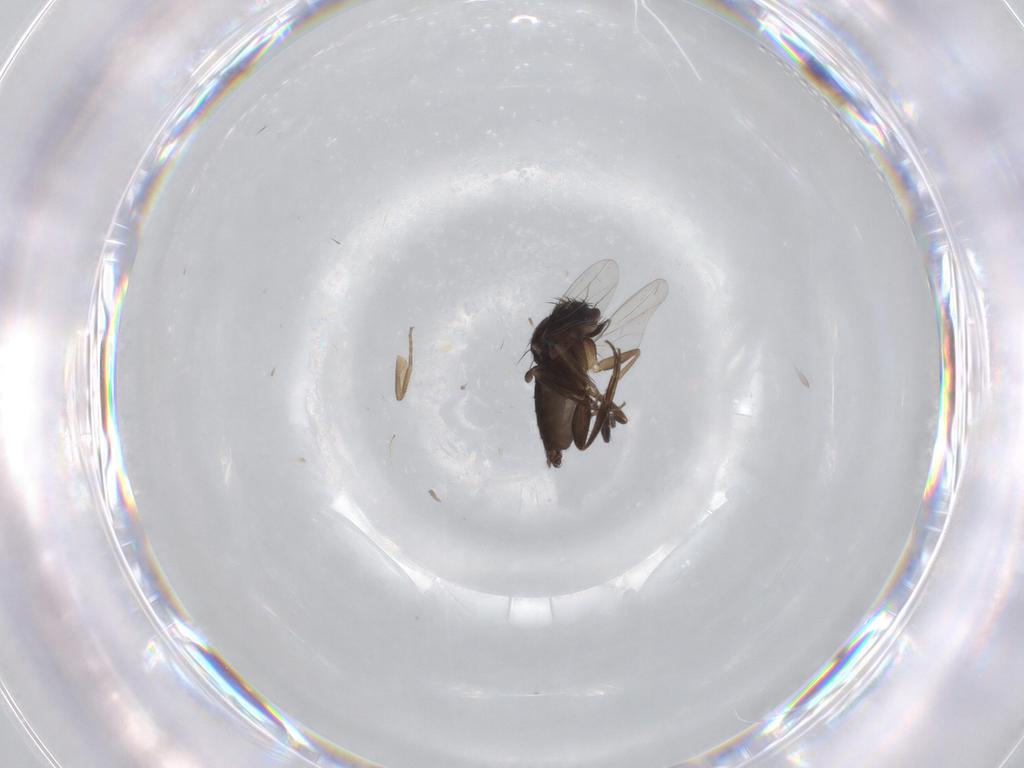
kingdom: Animalia
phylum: Arthropoda
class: Insecta
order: Diptera
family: Phoridae
